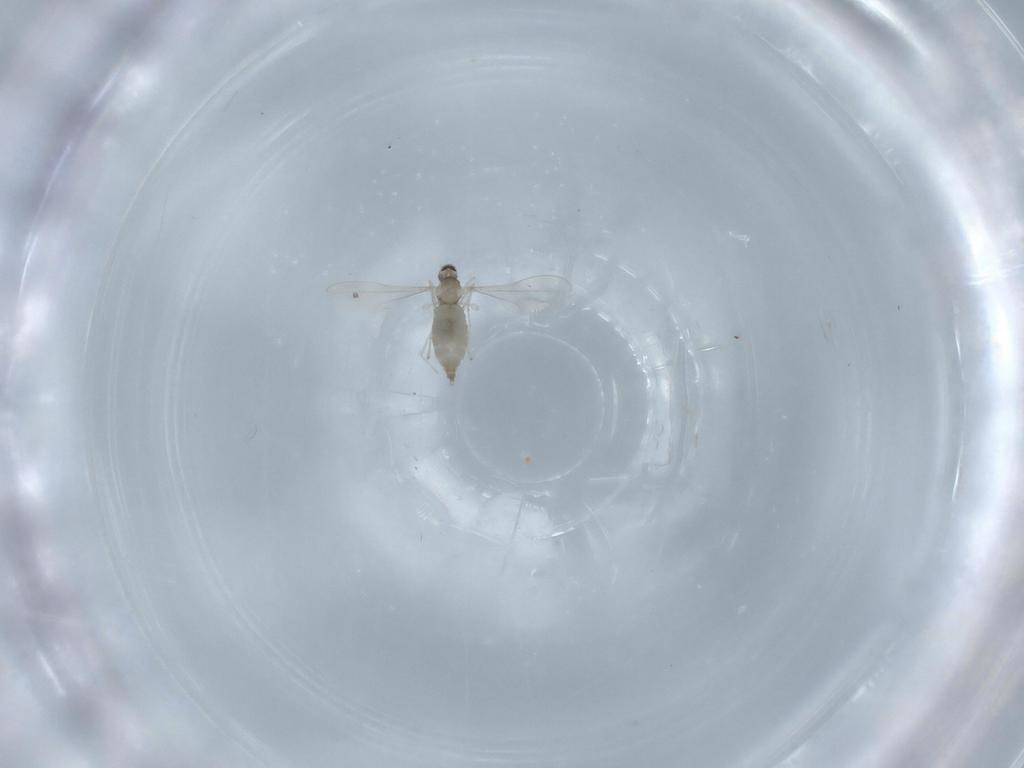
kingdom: Animalia
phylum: Arthropoda
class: Insecta
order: Diptera
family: Cecidomyiidae
